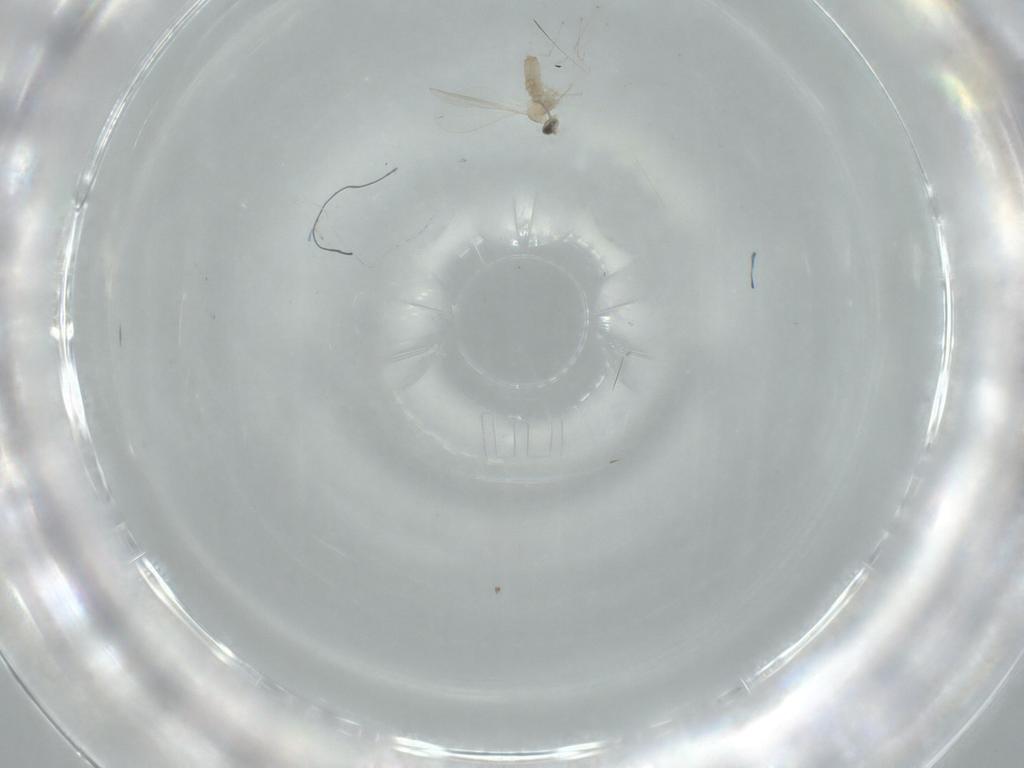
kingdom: Animalia
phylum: Arthropoda
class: Insecta
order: Diptera
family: Cecidomyiidae
